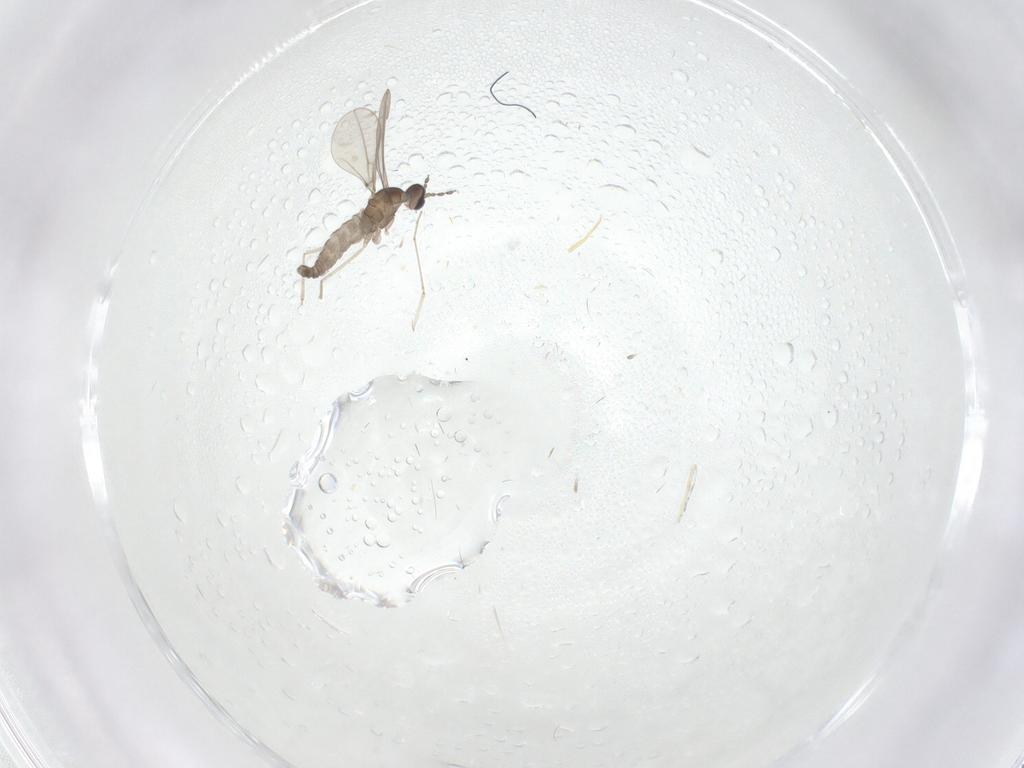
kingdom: Animalia
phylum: Arthropoda
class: Insecta
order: Diptera
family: Cecidomyiidae
